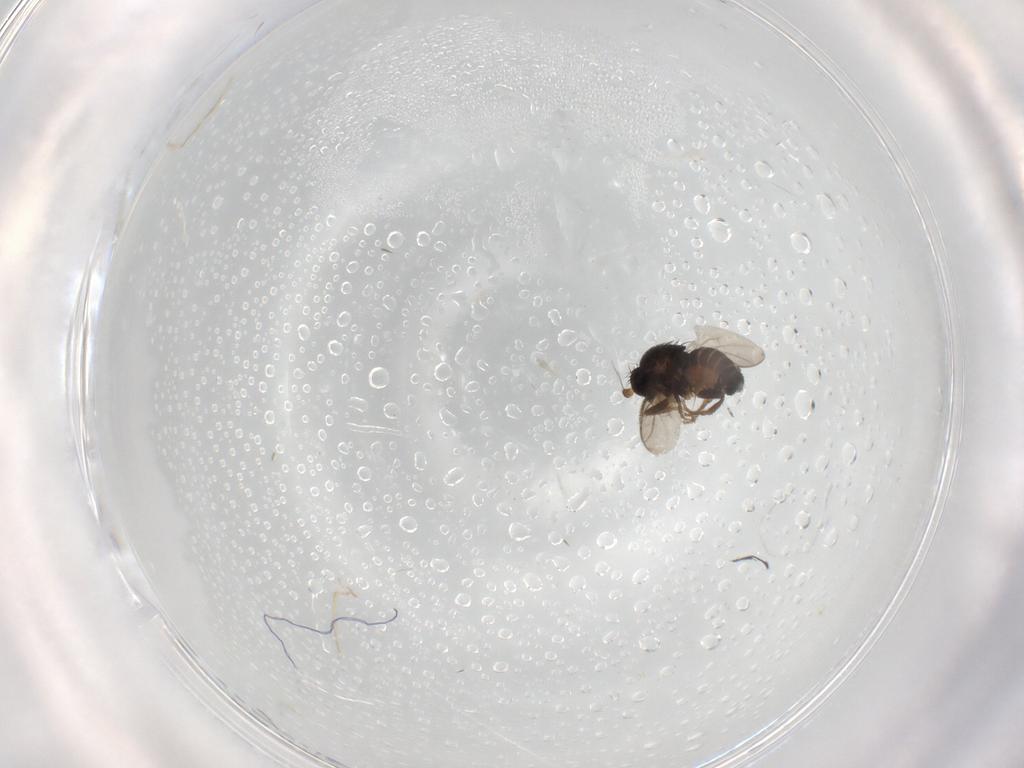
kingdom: Animalia
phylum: Arthropoda
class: Insecta
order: Diptera
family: Sphaeroceridae
